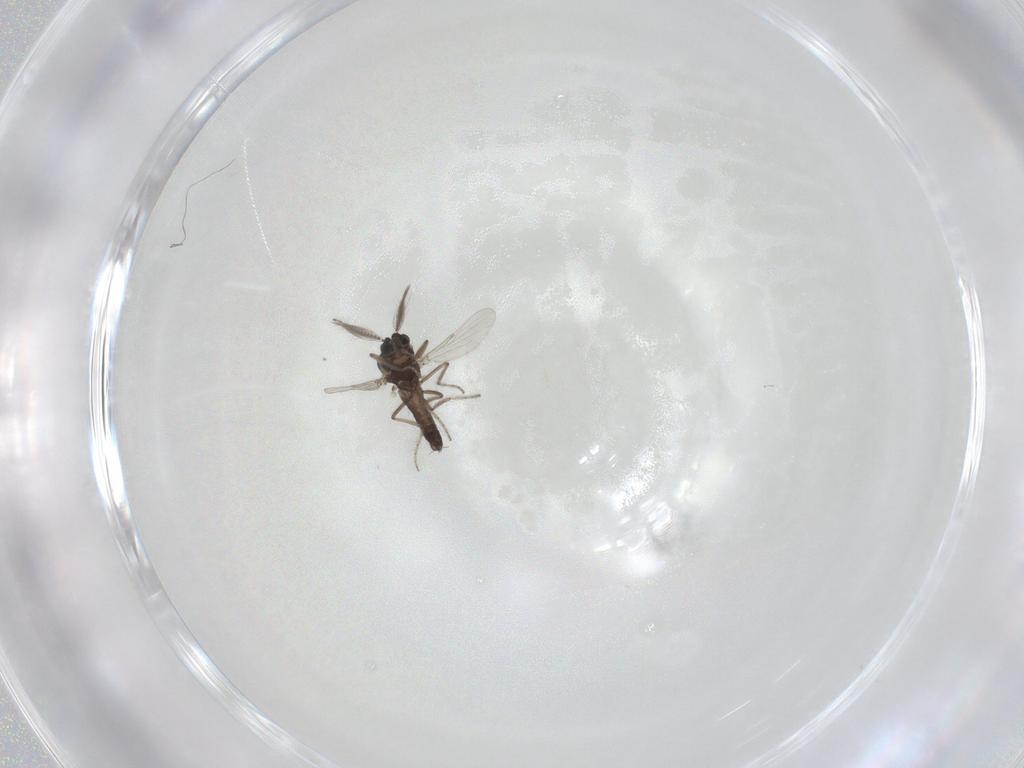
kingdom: Animalia
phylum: Arthropoda
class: Insecta
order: Diptera
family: Ceratopogonidae
